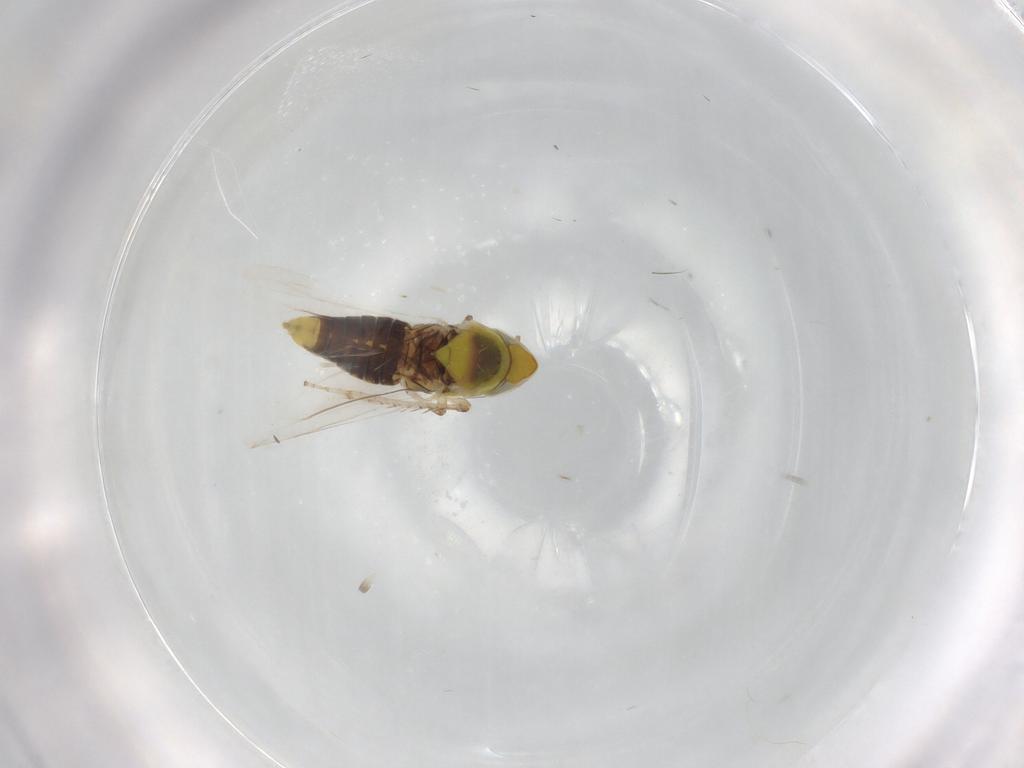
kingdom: Animalia
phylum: Arthropoda
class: Insecta
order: Hemiptera
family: Cicadellidae
